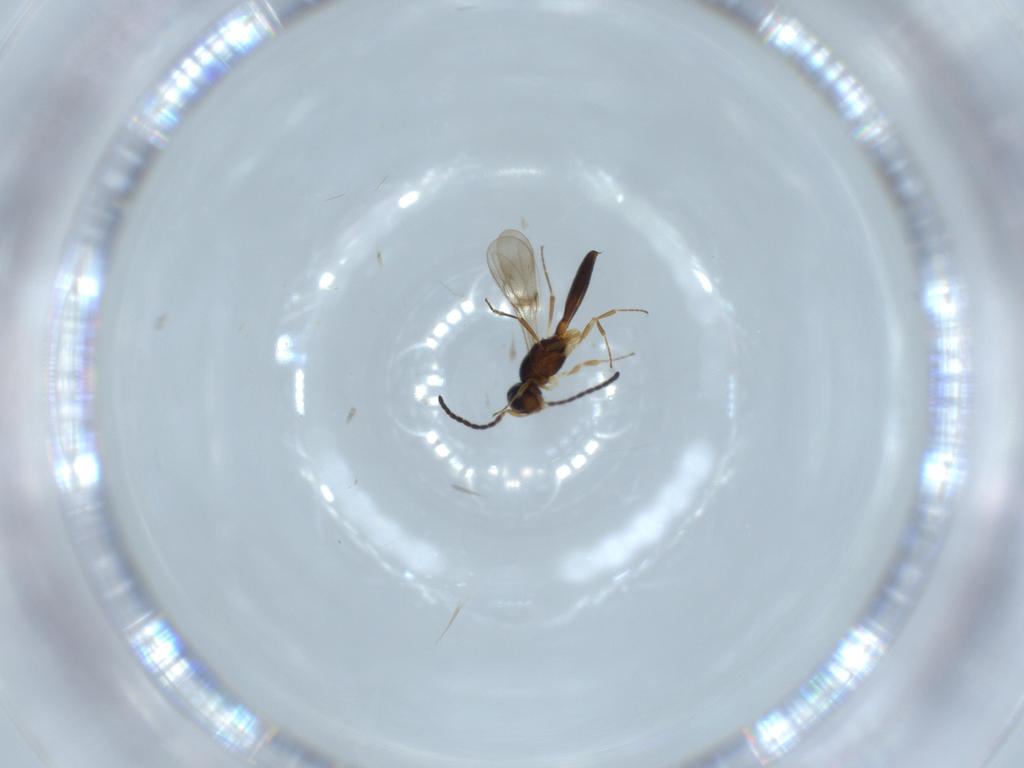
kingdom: Animalia
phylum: Arthropoda
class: Insecta
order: Hymenoptera
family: Scelionidae
